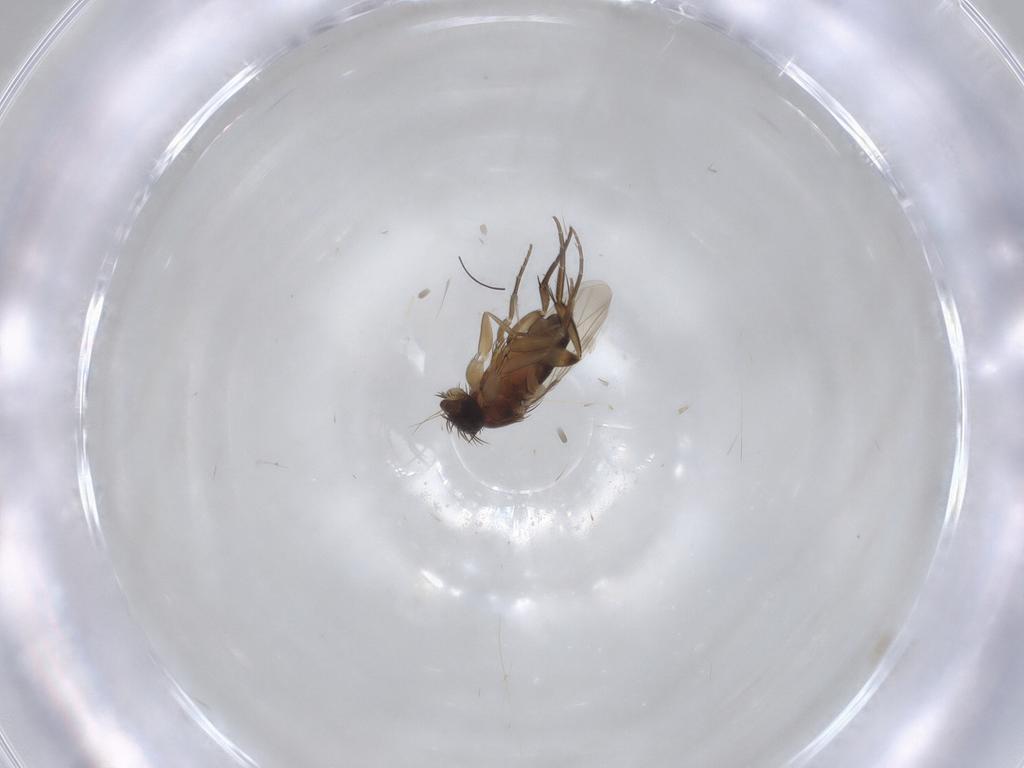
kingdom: Animalia
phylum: Arthropoda
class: Insecta
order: Diptera
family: Phoridae
